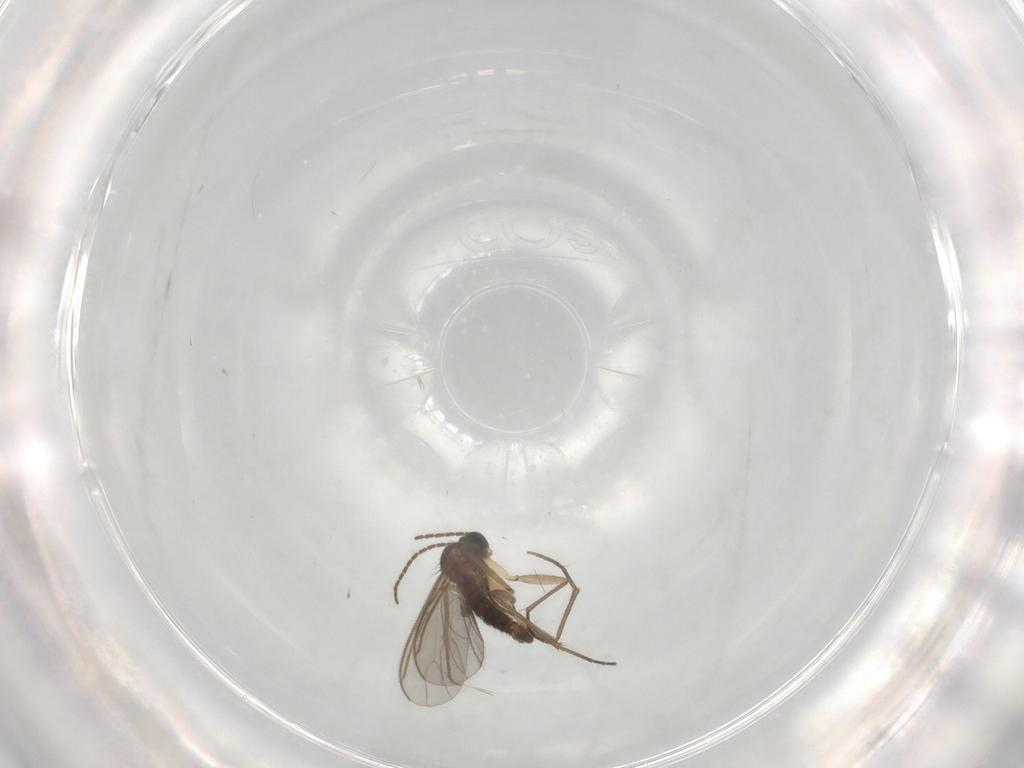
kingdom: Animalia
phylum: Arthropoda
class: Insecta
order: Diptera
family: Sciaridae
